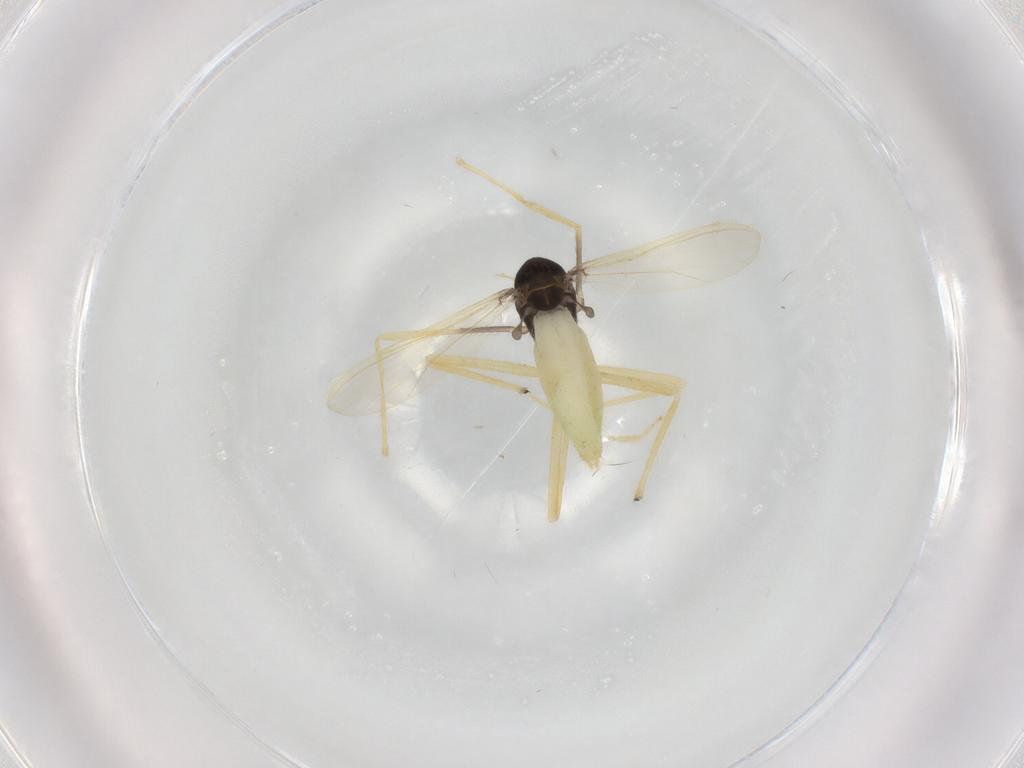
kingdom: Animalia
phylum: Arthropoda
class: Insecta
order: Diptera
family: Chironomidae
